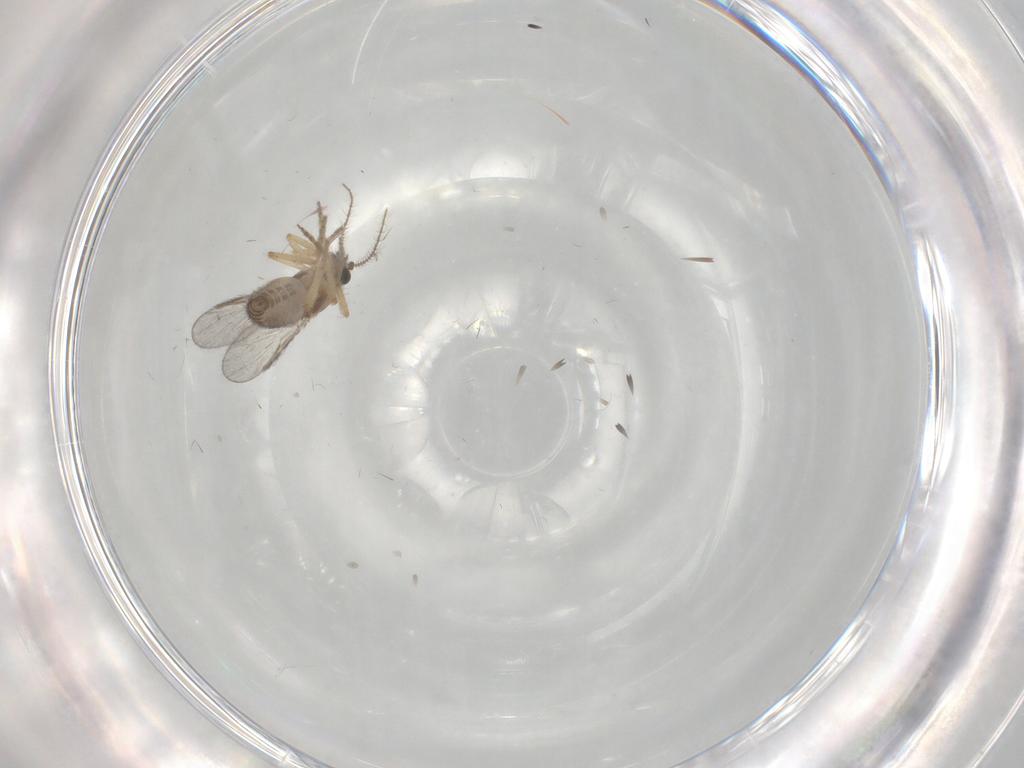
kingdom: Animalia
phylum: Arthropoda
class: Insecta
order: Diptera
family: Ceratopogonidae
